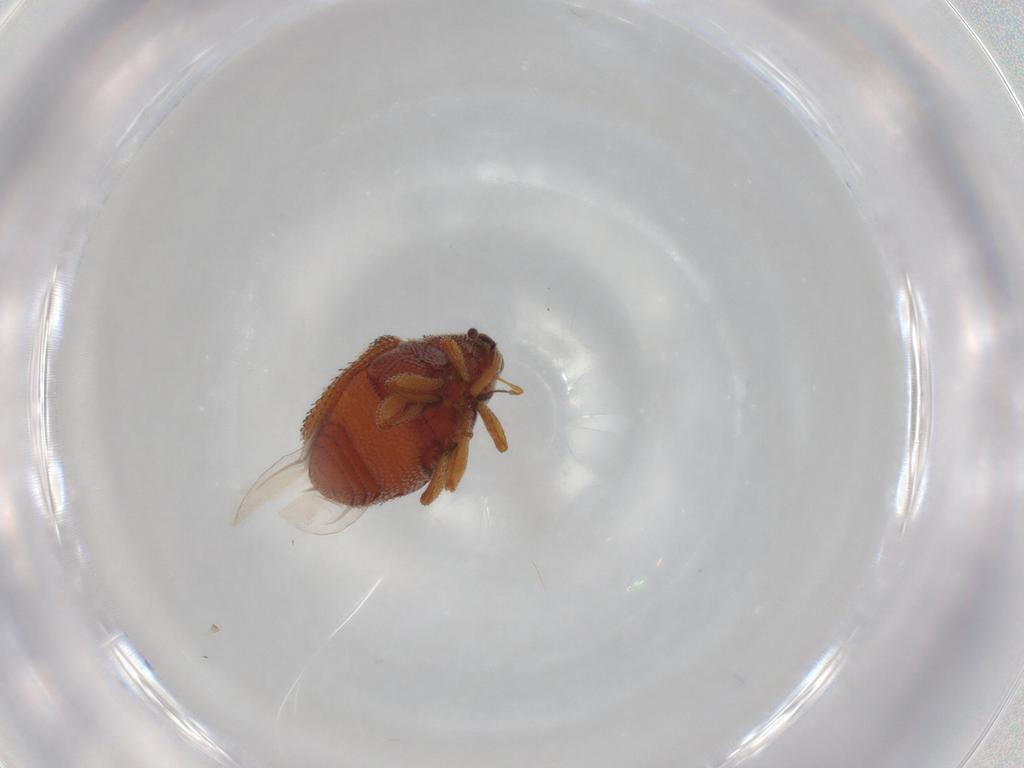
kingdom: Animalia
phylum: Arthropoda
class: Insecta
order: Coleoptera
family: Curculionidae
